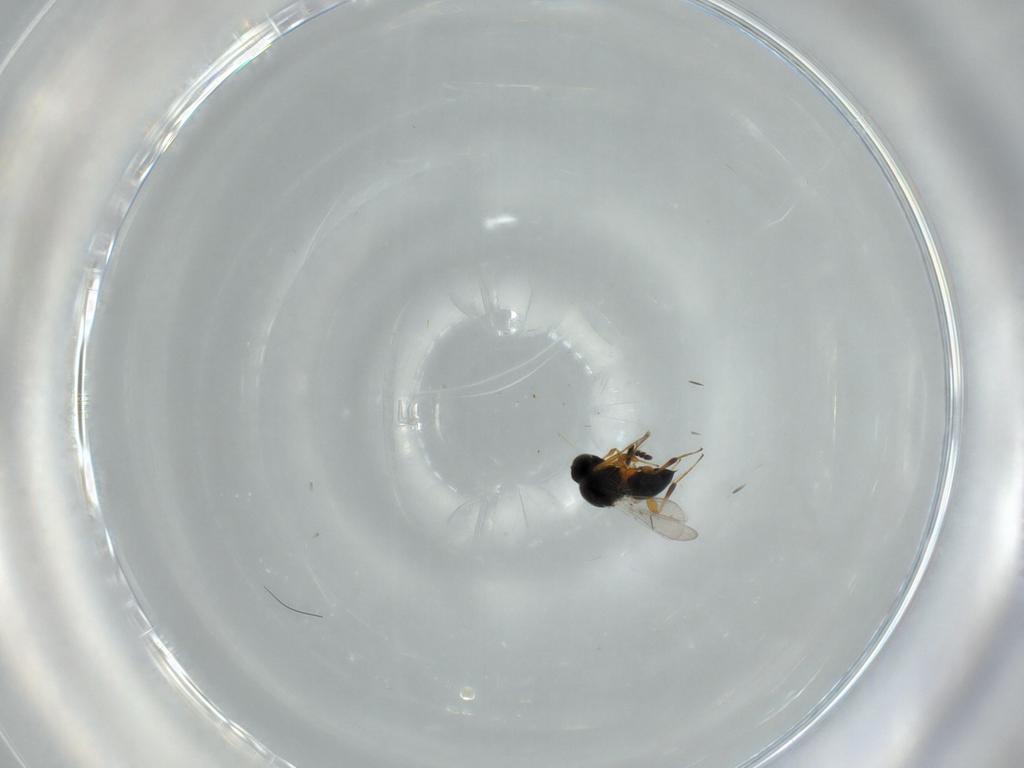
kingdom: Animalia
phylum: Arthropoda
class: Insecta
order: Hymenoptera
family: Platygastridae
